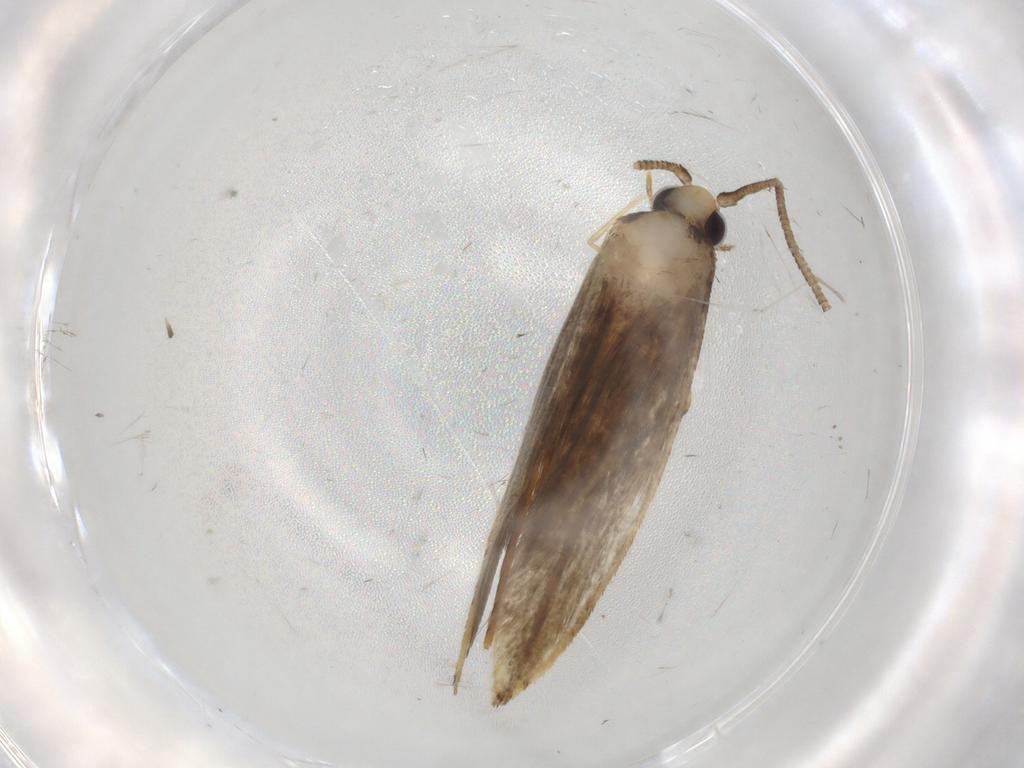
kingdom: Animalia
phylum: Arthropoda
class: Insecta
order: Lepidoptera
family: Tineidae
